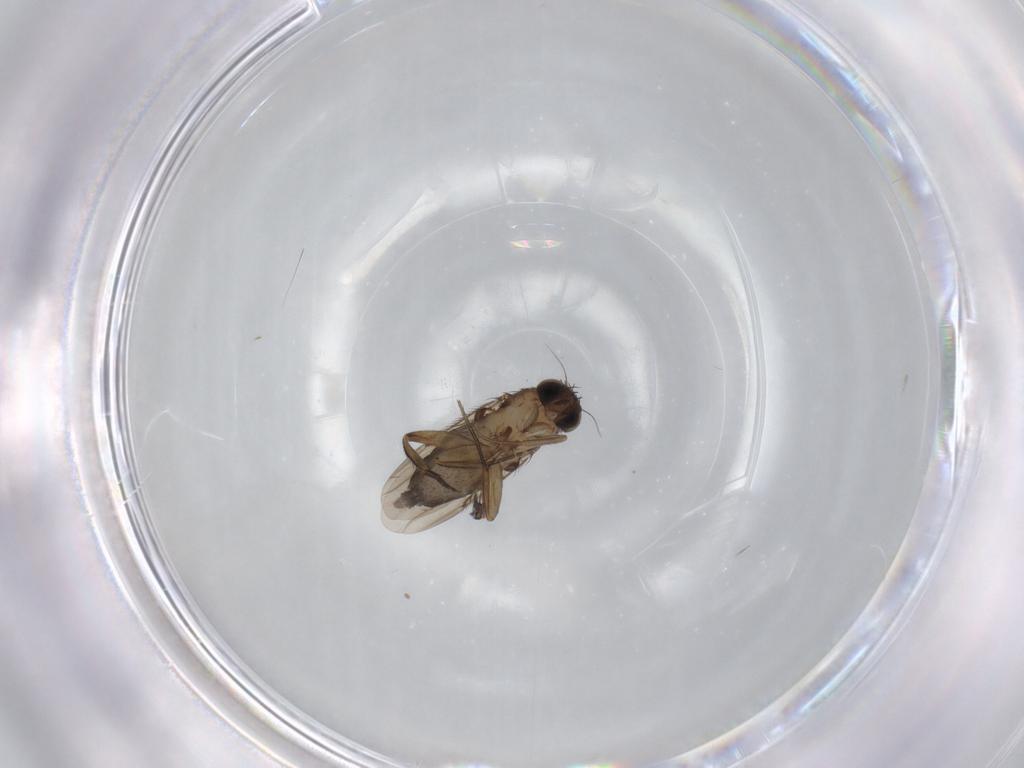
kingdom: Animalia
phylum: Arthropoda
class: Insecta
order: Diptera
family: Phoridae
